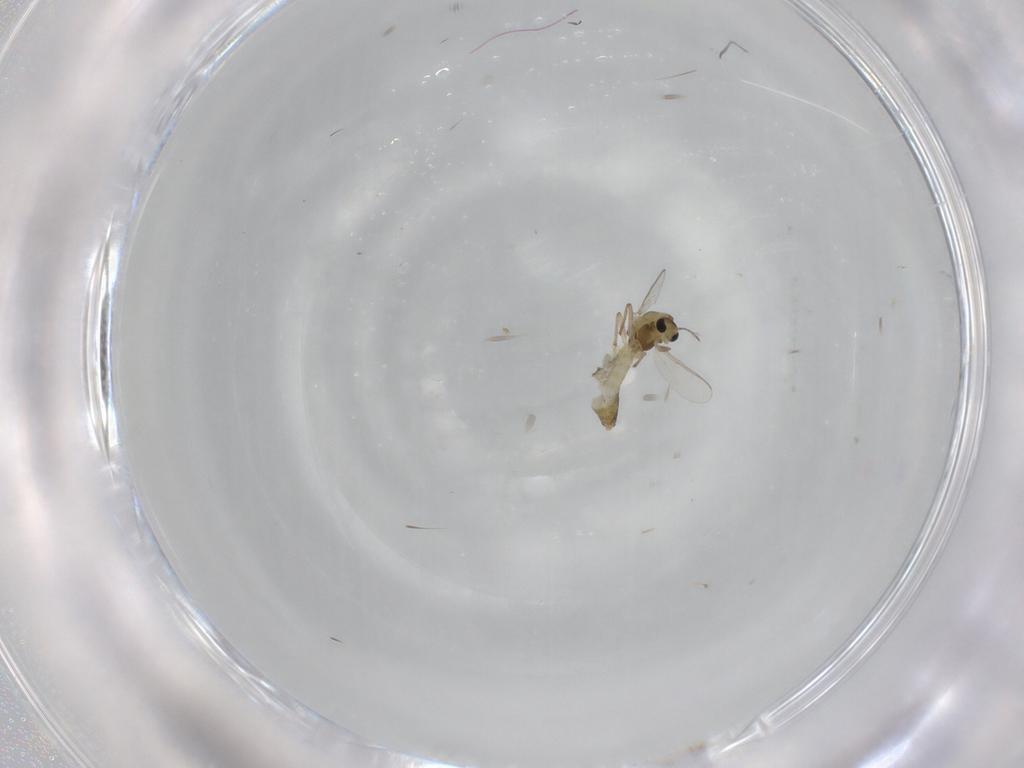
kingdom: Animalia
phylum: Arthropoda
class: Insecta
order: Diptera
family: Chironomidae
